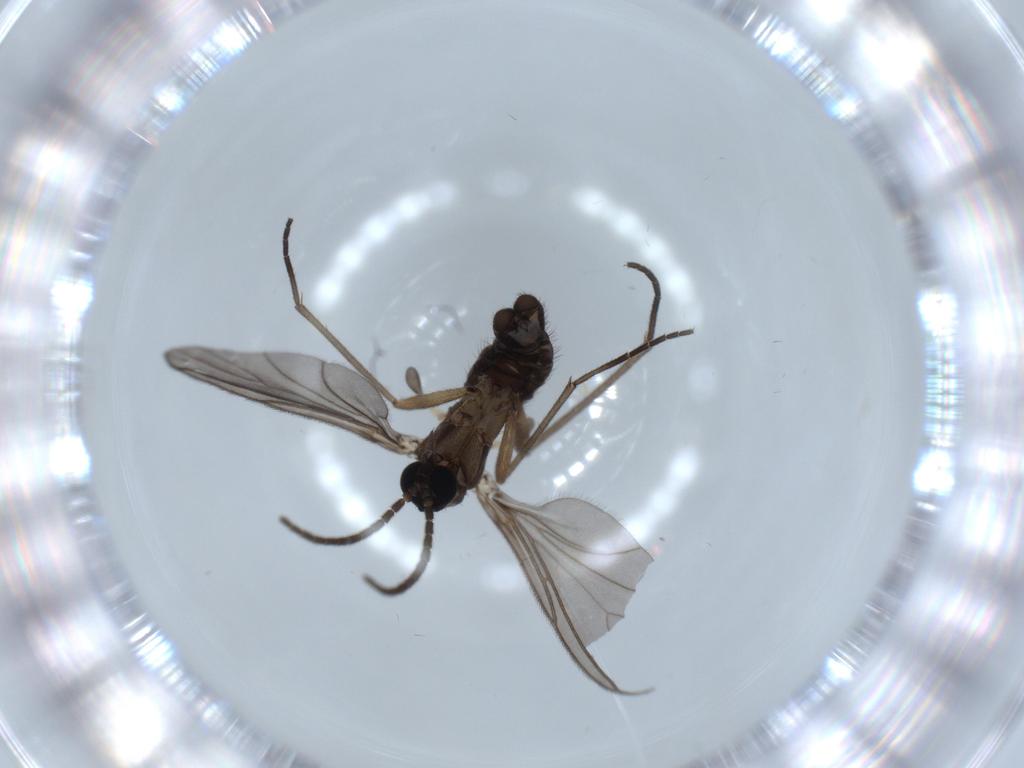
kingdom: Animalia
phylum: Arthropoda
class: Insecta
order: Diptera
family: Sciaridae
